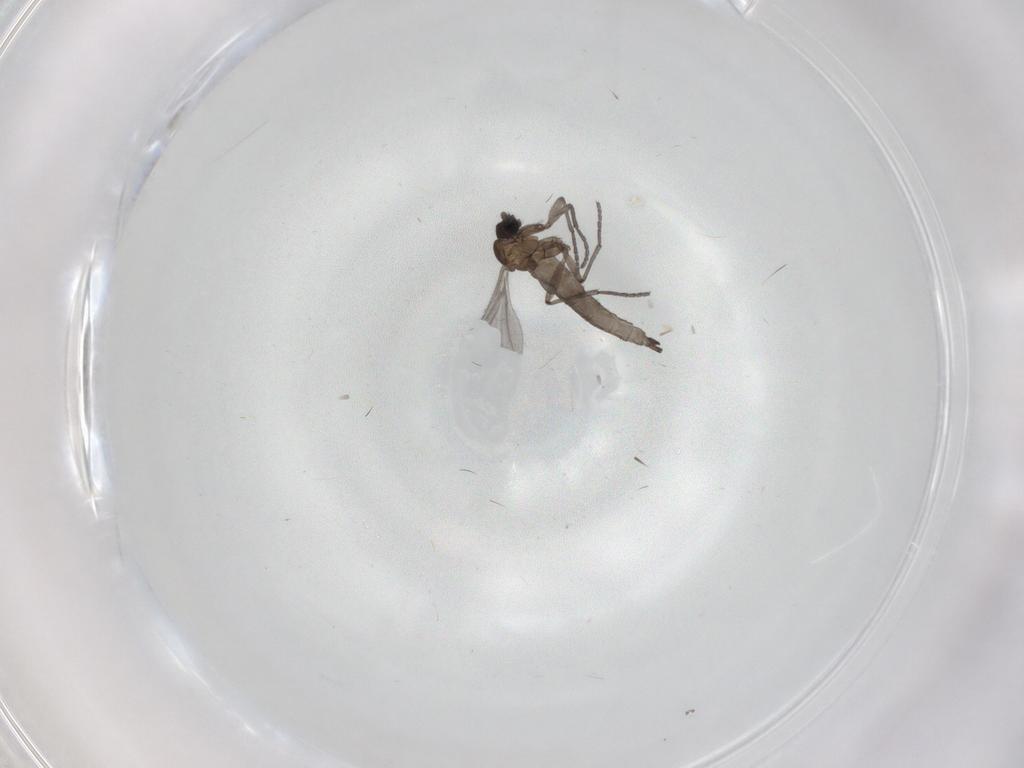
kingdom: Animalia
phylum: Arthropoda
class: Insecta
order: Diptera
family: Sciaridae
